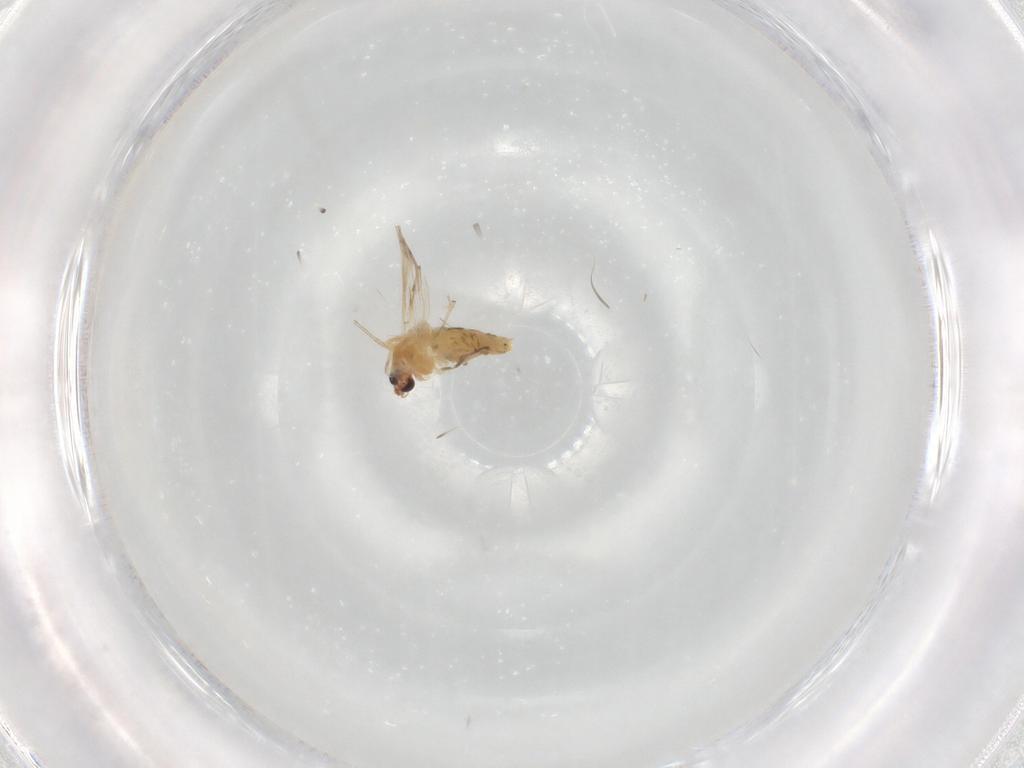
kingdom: Animalia
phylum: Arthropoda
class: Insecta
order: Diptera
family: Chironomidae
